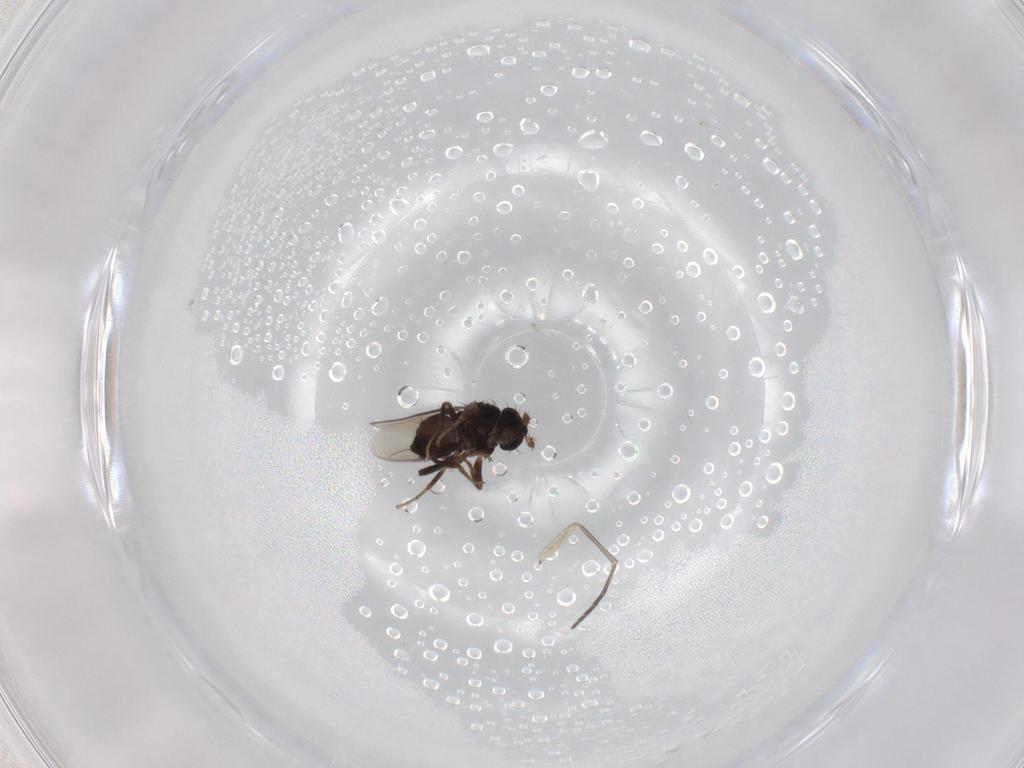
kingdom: Animalia
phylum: Arthropoda
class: Insecta
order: Diptera
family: Sphaeroceridae
